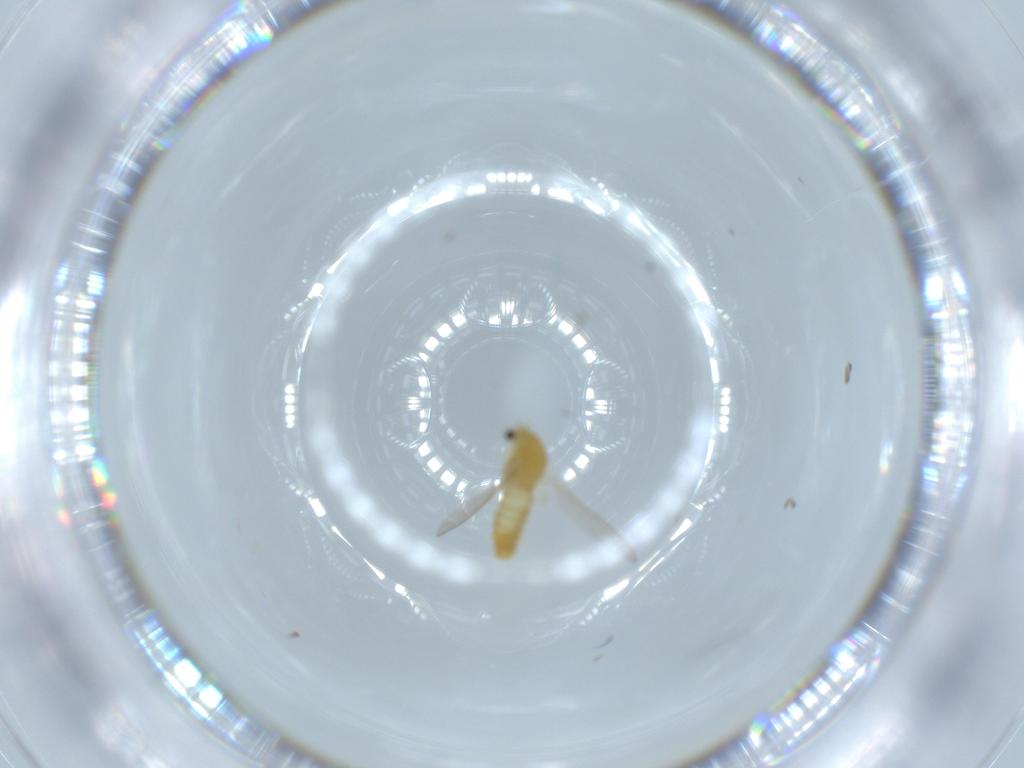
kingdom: Animalia
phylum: Arthropoda
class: Insecta
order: Diptera
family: Chironomidae
